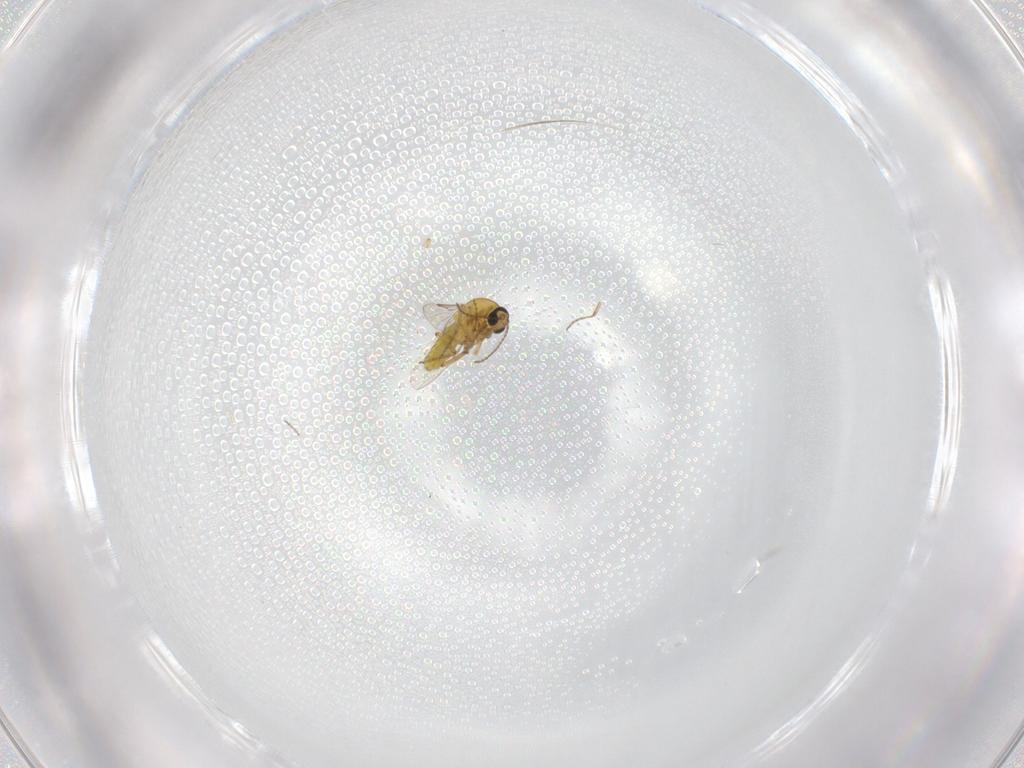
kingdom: Animalia
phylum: Arthropoda
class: Insecta
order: Diptera
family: Ceratopogonidae
